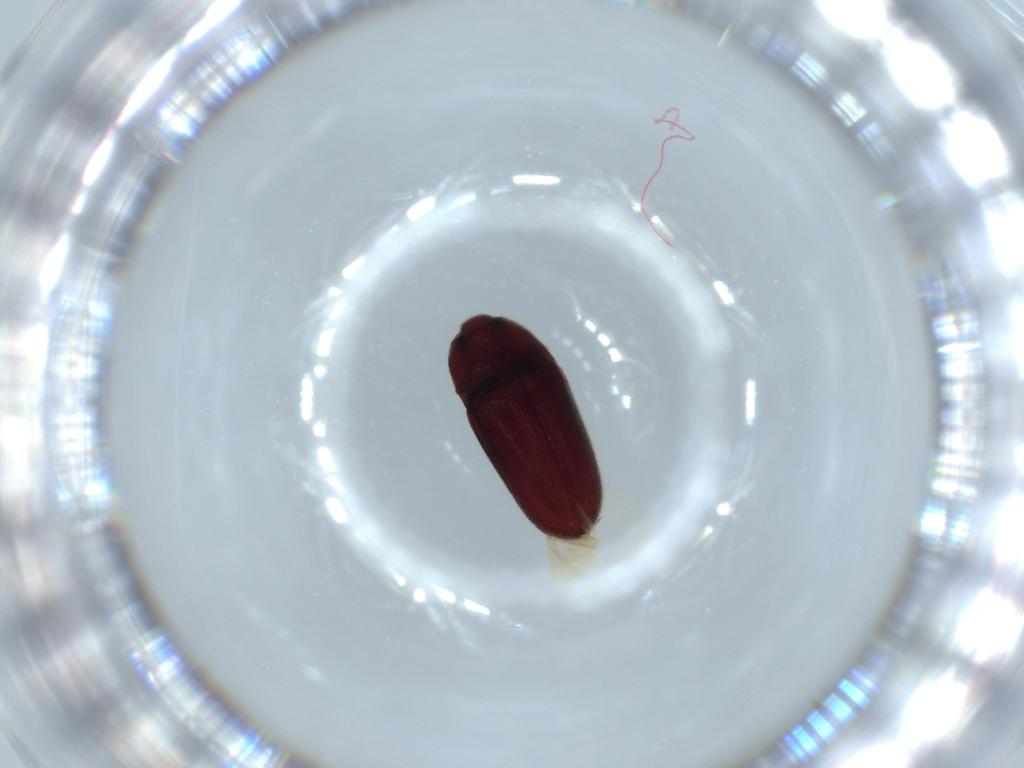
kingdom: Animalia
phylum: Arthropoda
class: Insecta
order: Coleoptera
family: Throscidae
